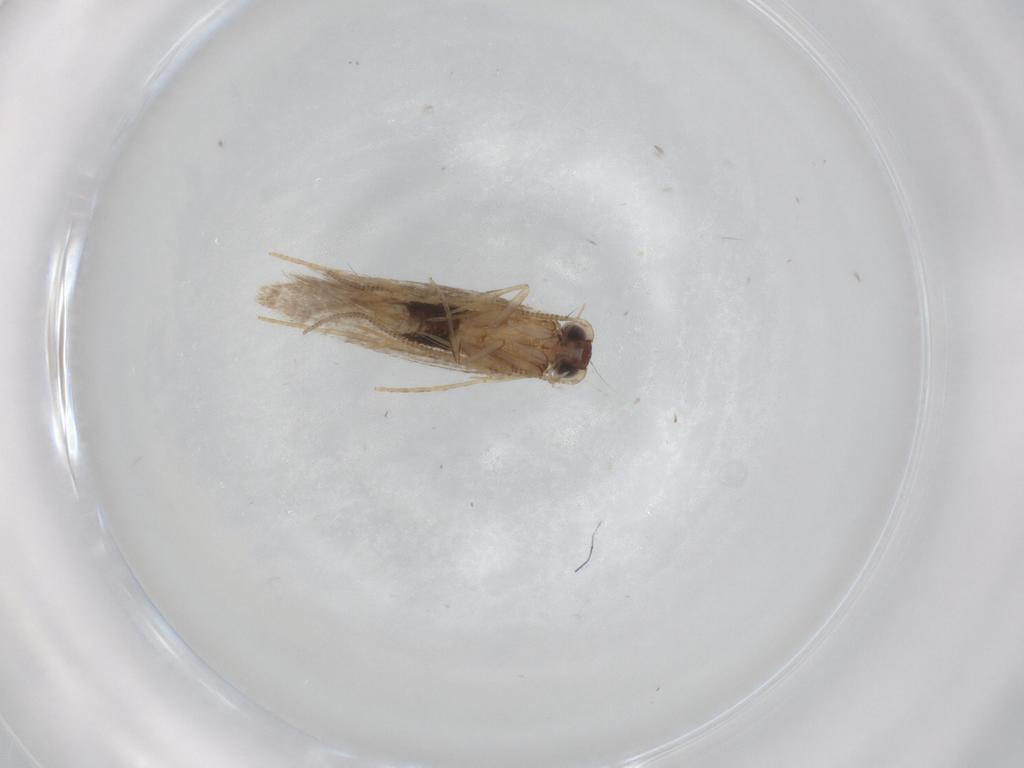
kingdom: Animalia
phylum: Arthropoda
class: Insecta
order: Lepidoptera
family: Tineidae
